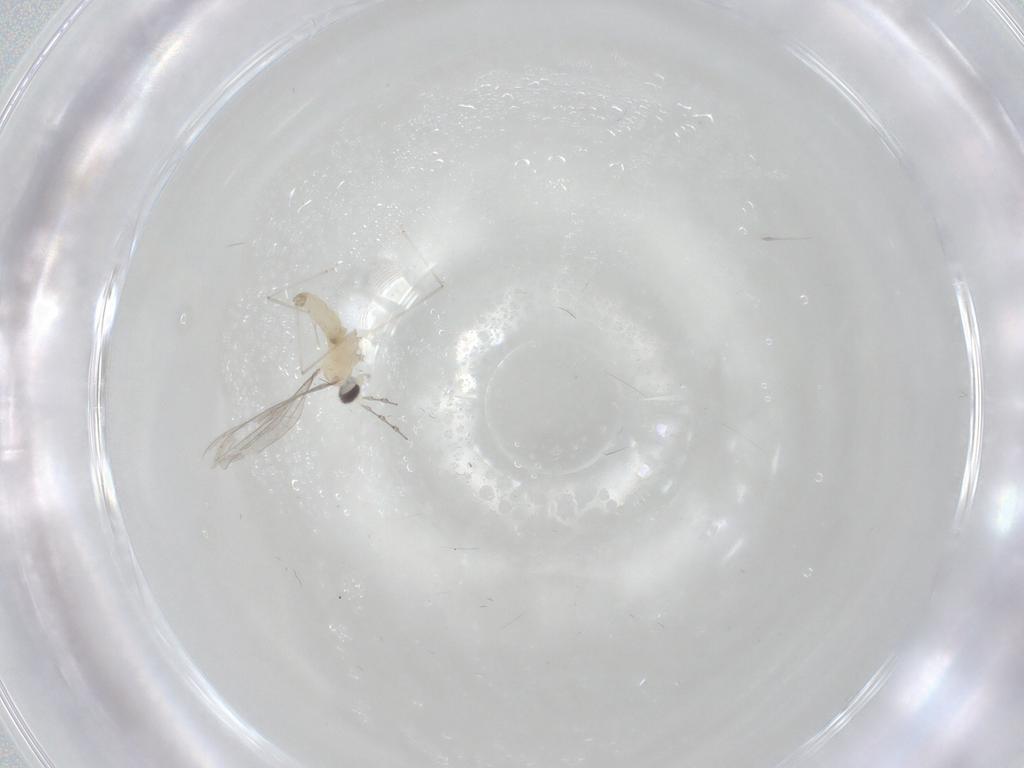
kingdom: Animalia
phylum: Arthropoda
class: Insecta
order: Diptera
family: Cecidomyiidae
